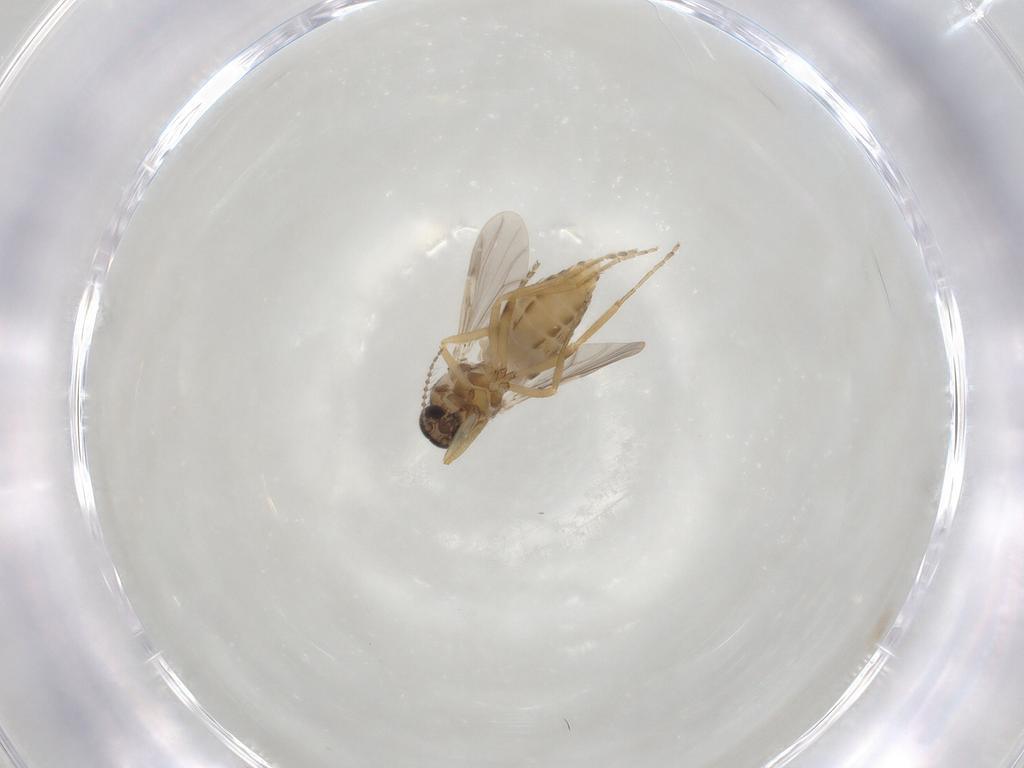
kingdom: Animalia
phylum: Arthropoda
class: Insecta
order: Diptera
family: Ceratopogonidae
